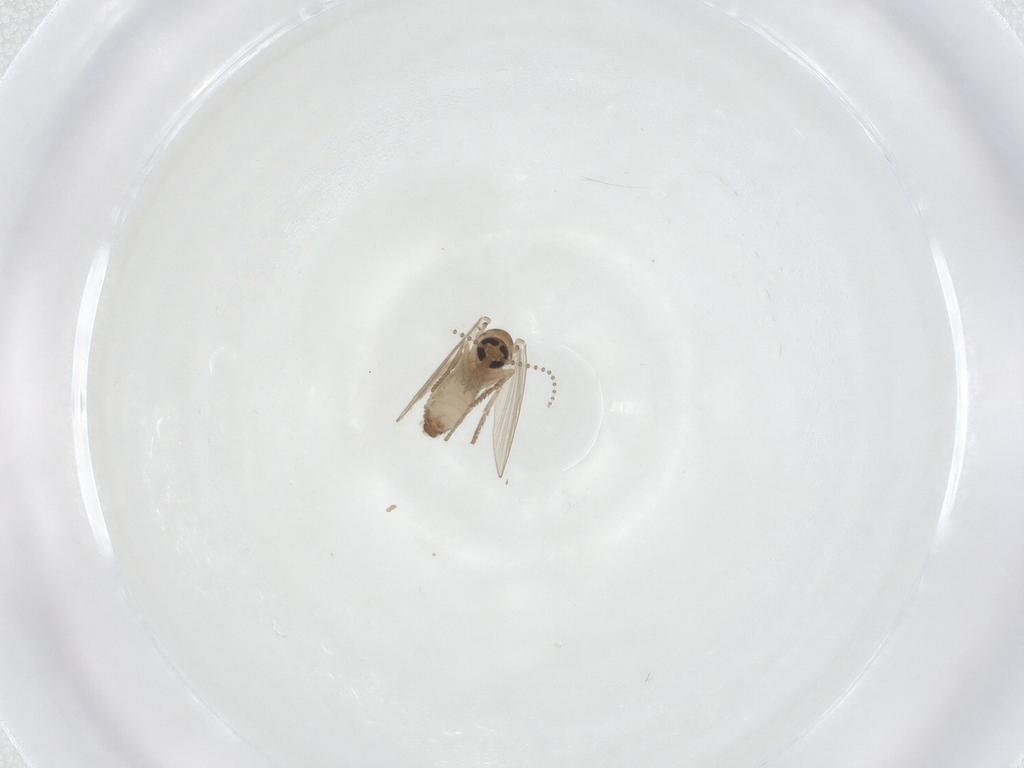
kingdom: Animalia
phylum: Arthropoda
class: Insecta
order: Diptera
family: Psychodidae
